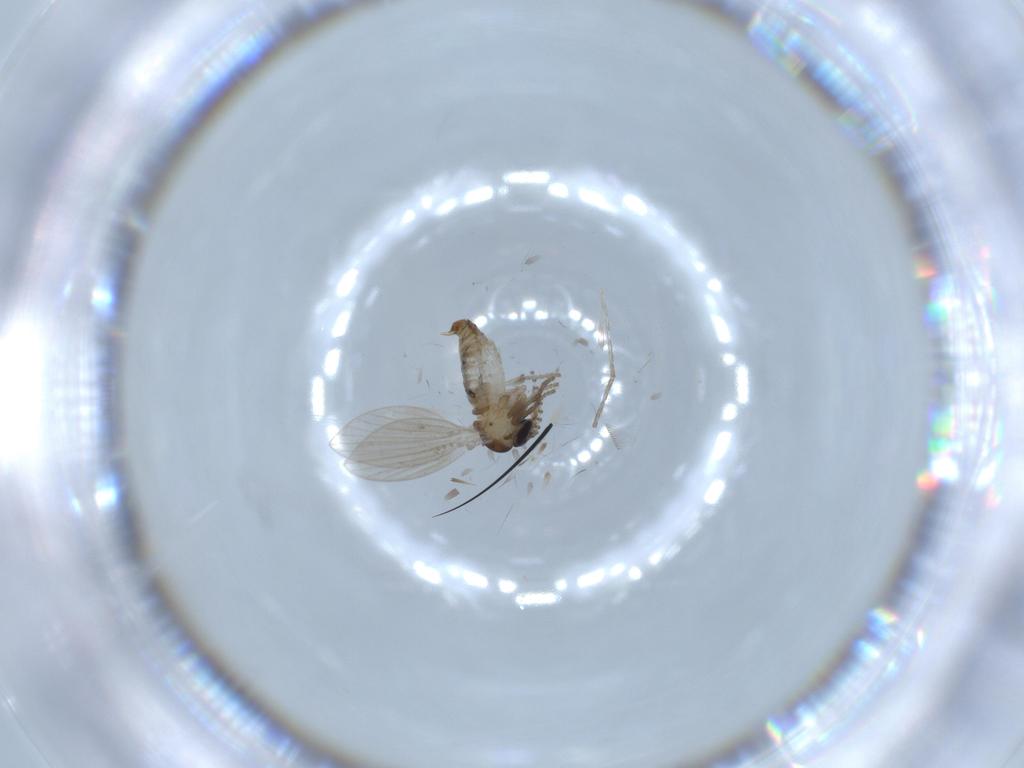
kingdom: Animalia
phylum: Arthropoda
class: Insecta
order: Diptera
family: Psychodidae
